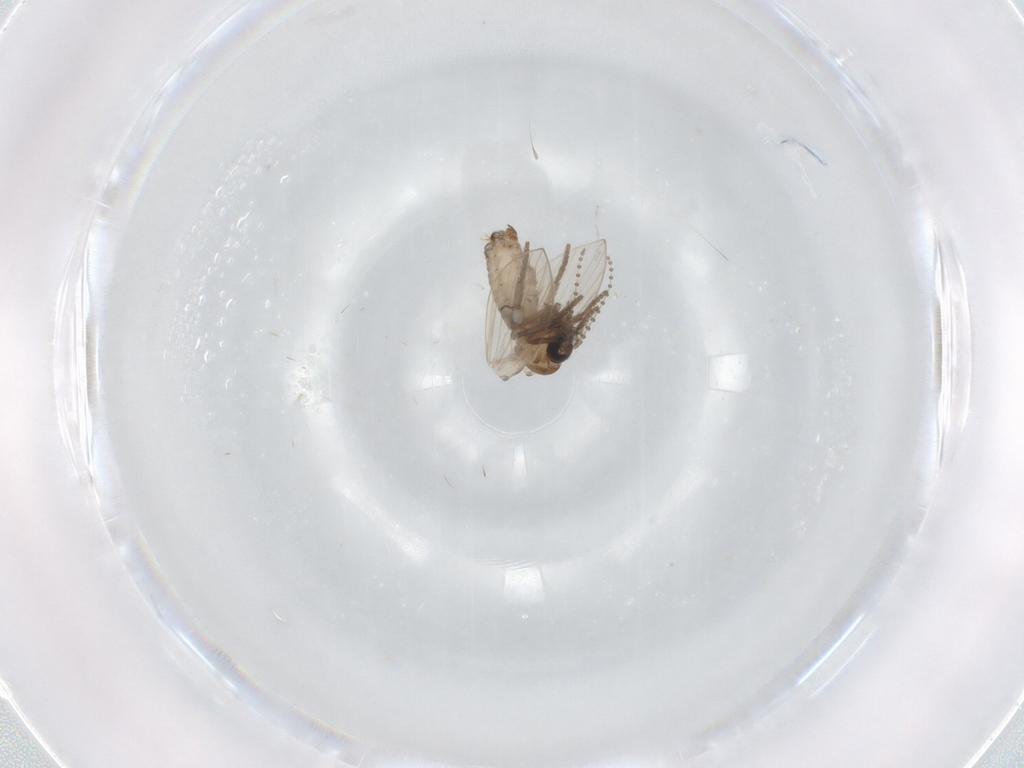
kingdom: Animalia
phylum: Arthropoda
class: Insecta
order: Diptera
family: Psychodidae
